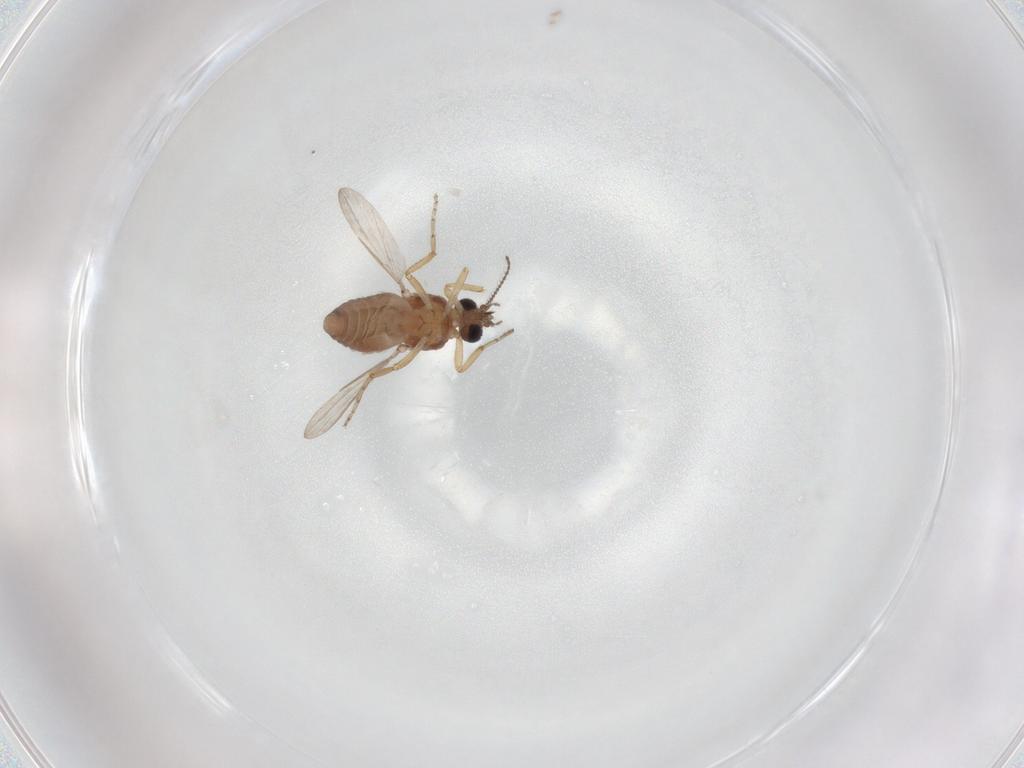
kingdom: Animalia
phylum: Arthropoda
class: Insecta
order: Diptera
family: Ceratopogonidae
